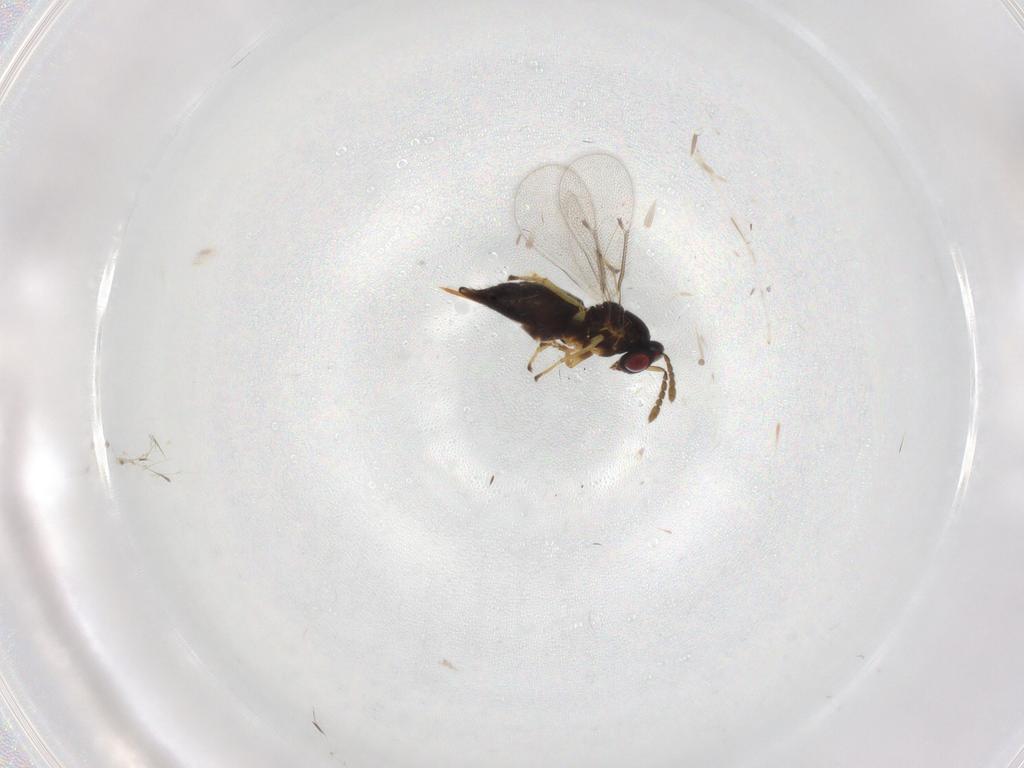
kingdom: Animalia
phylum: Arthropoda
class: Insecta
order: Hymenoptera
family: Eulophidae
